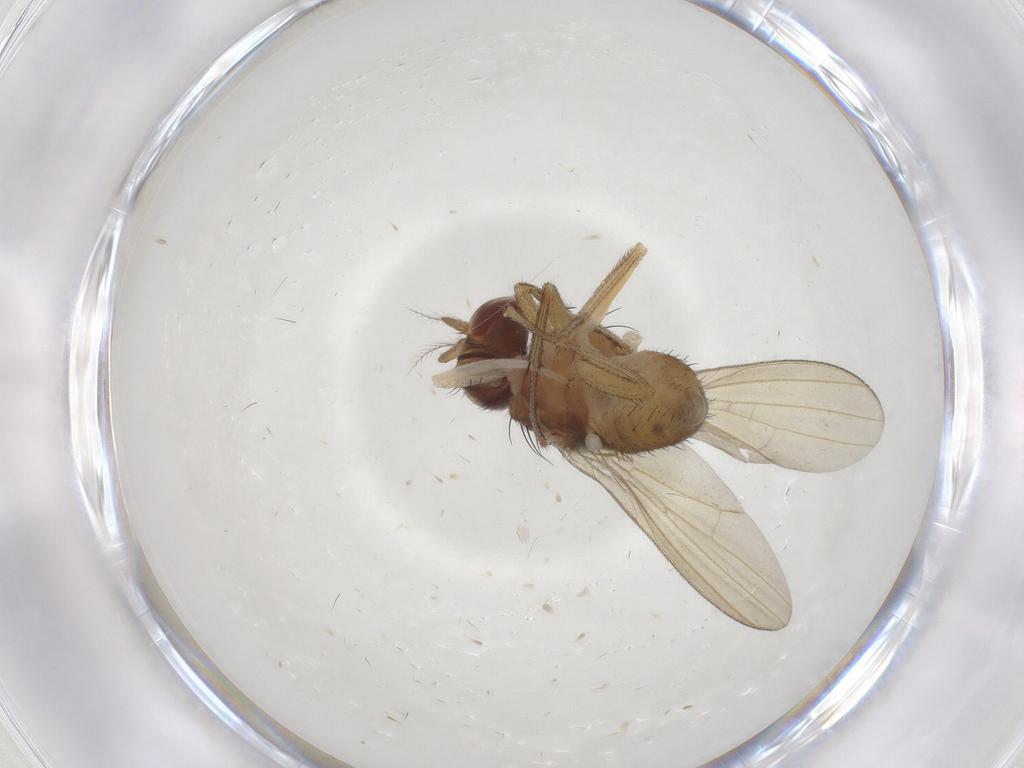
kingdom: Animalia
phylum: Arthropoda
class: Insecta
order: Diptera
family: Lauxaniidae
